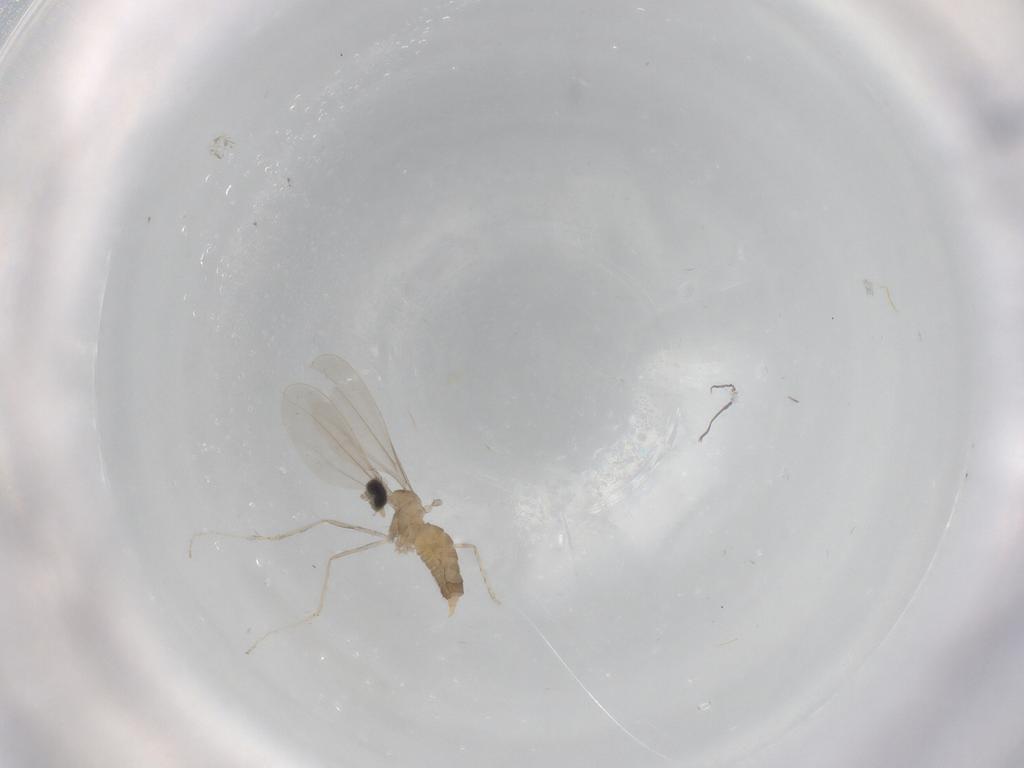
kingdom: Animalia
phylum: Arthropoda
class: Insecta
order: Diptera
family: Cecidomyiidae
